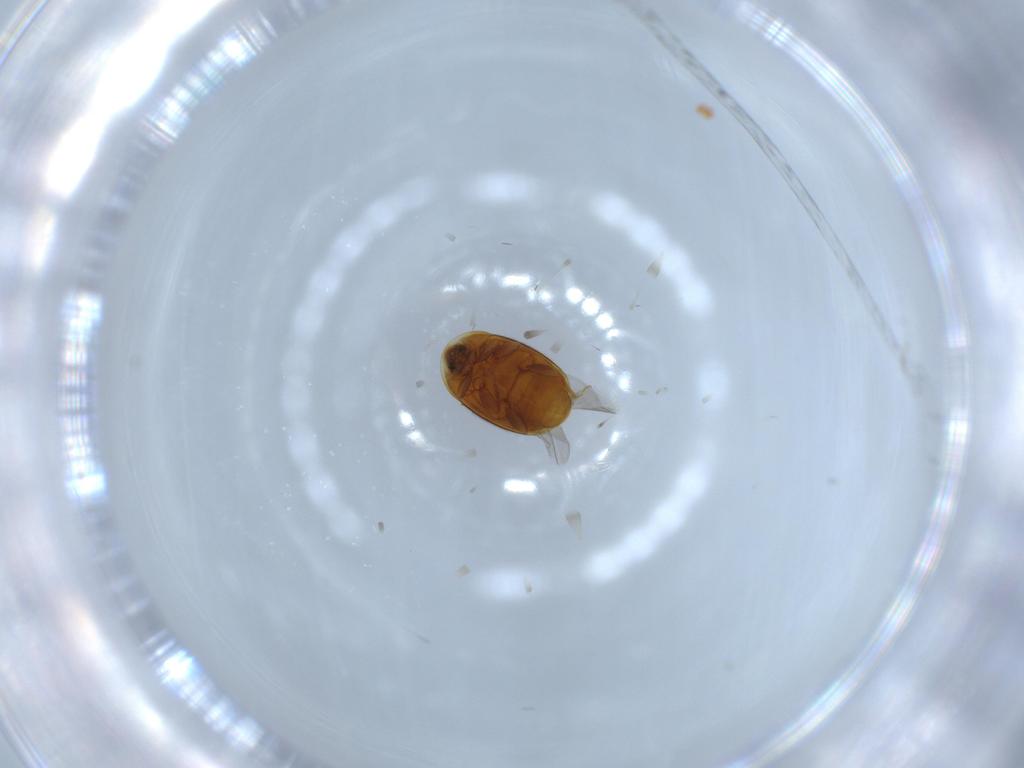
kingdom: Animalia
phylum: Arthropoda
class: Insecta
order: Coleoptera
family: Corylophidae
